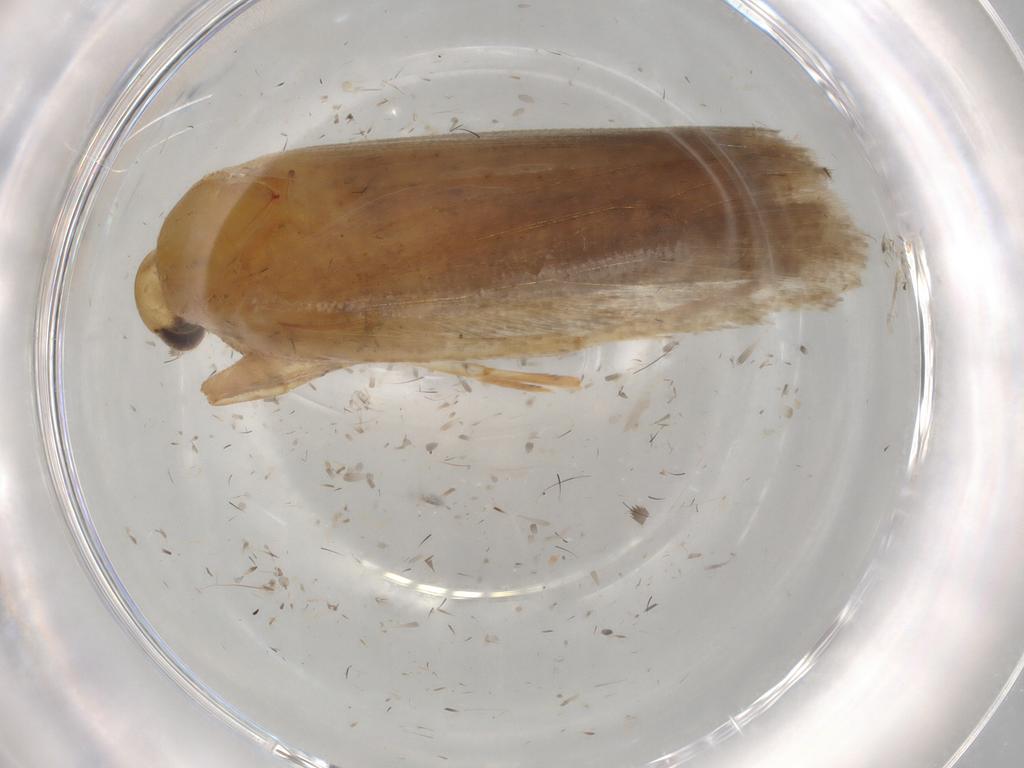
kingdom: Animalia
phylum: Arthropoda
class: Insecta
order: Lepidoptera
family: Gelechiidae
